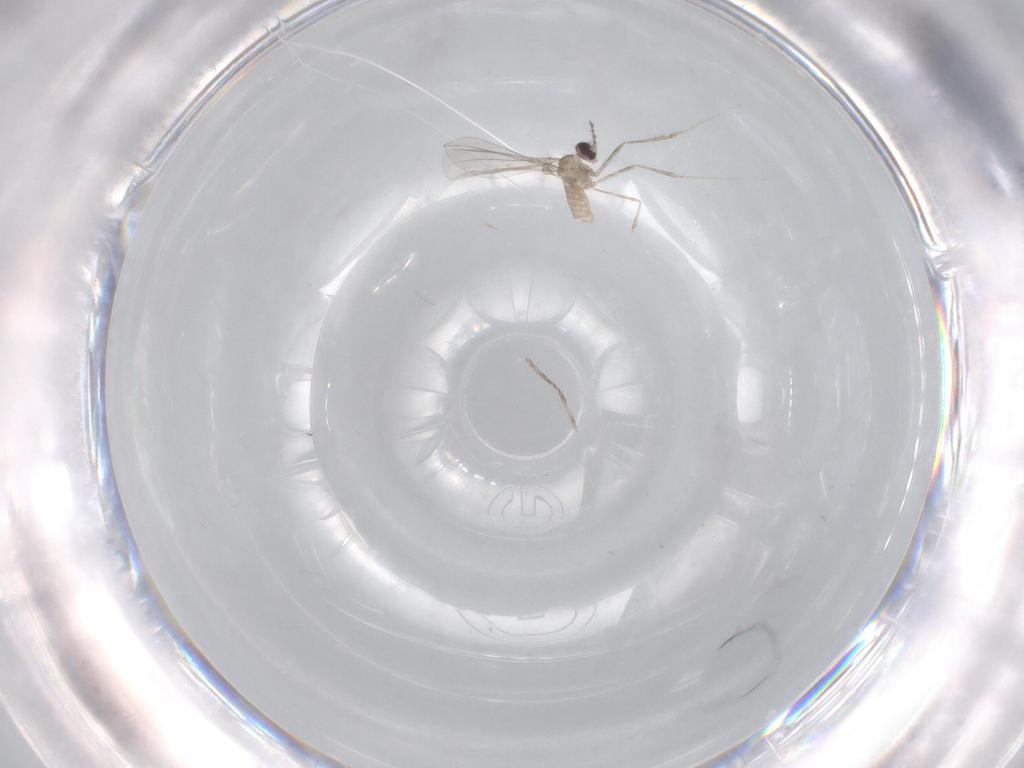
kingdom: Animalia
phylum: Arthropoda
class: Insecta
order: Diptera
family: Cecidomyiidae
